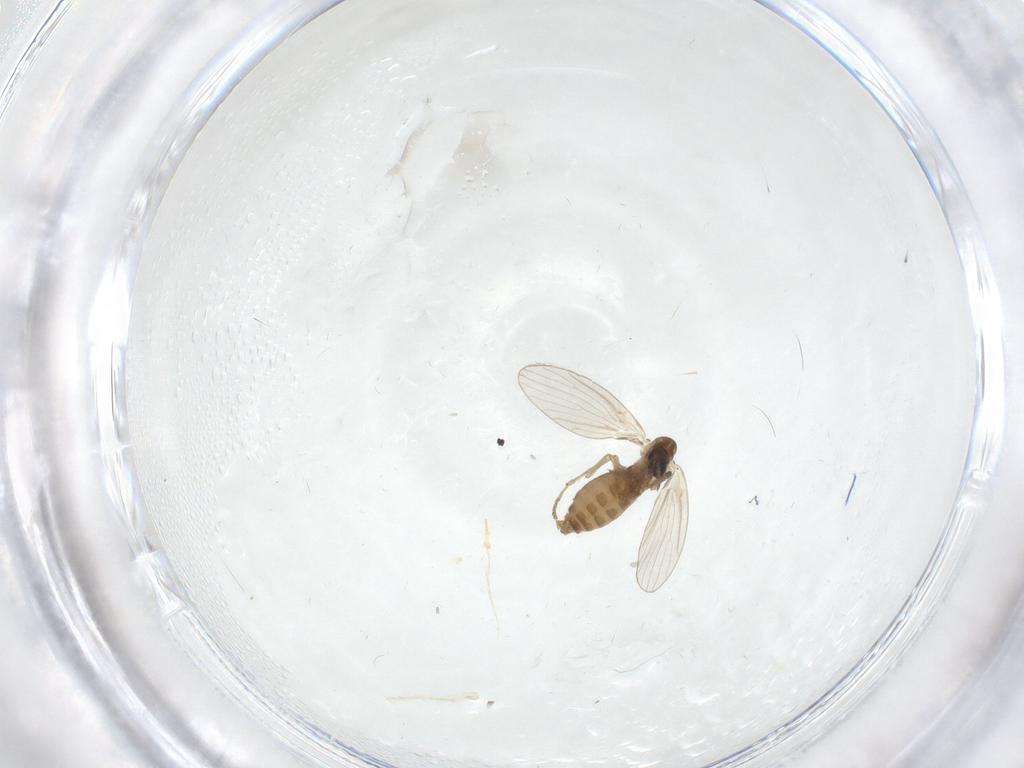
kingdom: Animalia
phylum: Arthropoda
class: Insecta
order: Diptera
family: Psychodidae
